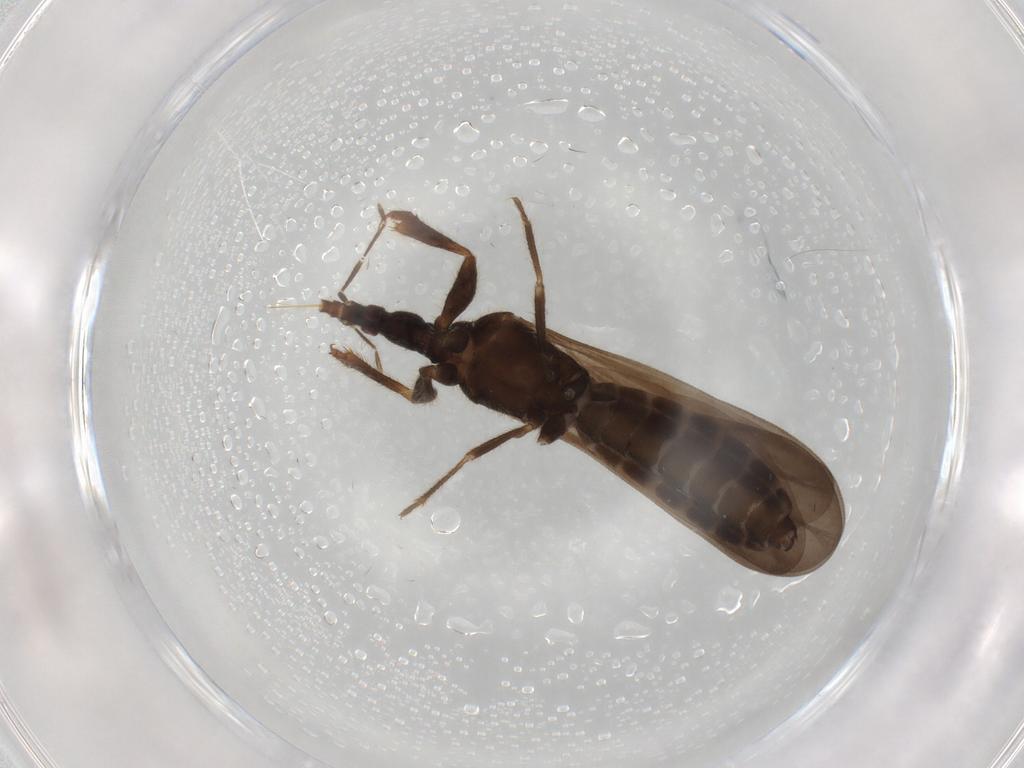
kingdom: Animalia
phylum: Arthropoda
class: Insecta
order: Hemiptera
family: Enicocephalidae
